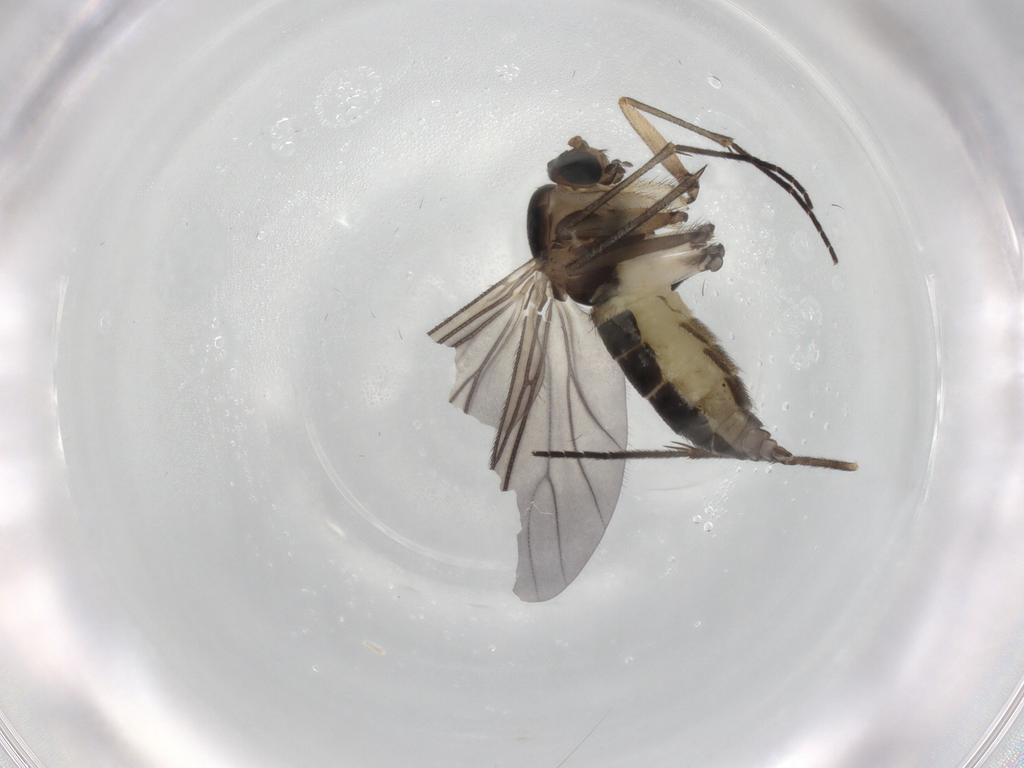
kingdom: Animalia
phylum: Arthropoda
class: Insecta
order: Diptera
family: Sciaridae
